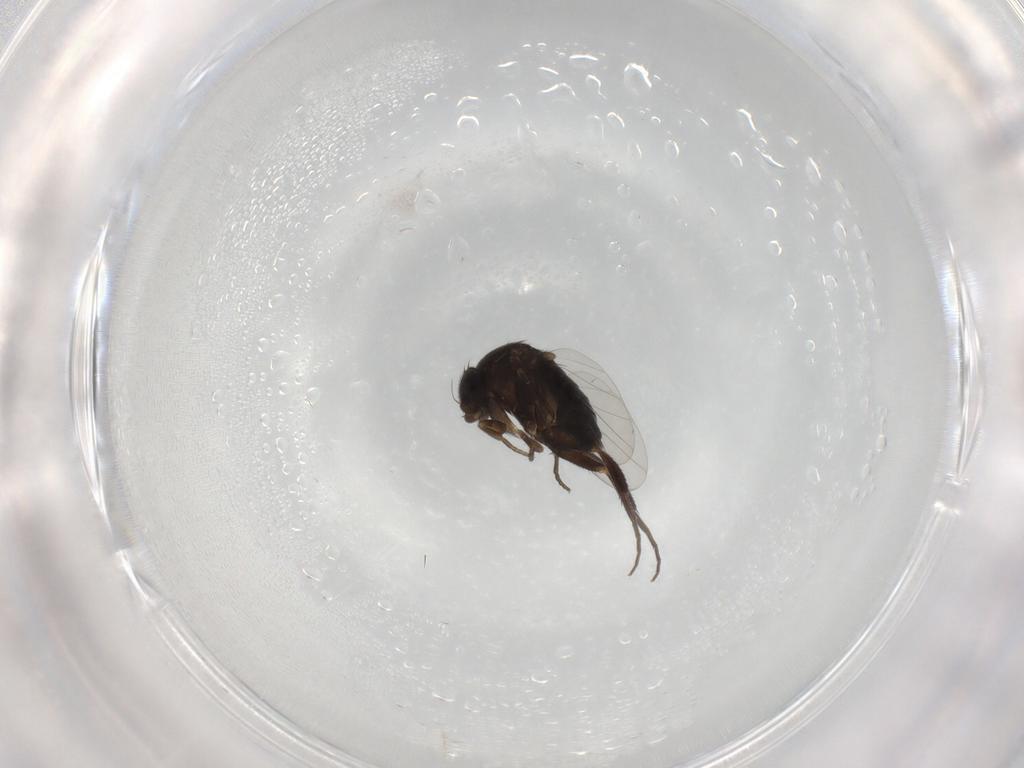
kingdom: Animalia
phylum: Arthropoda
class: Insecta
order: Diptera
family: Phoridae
